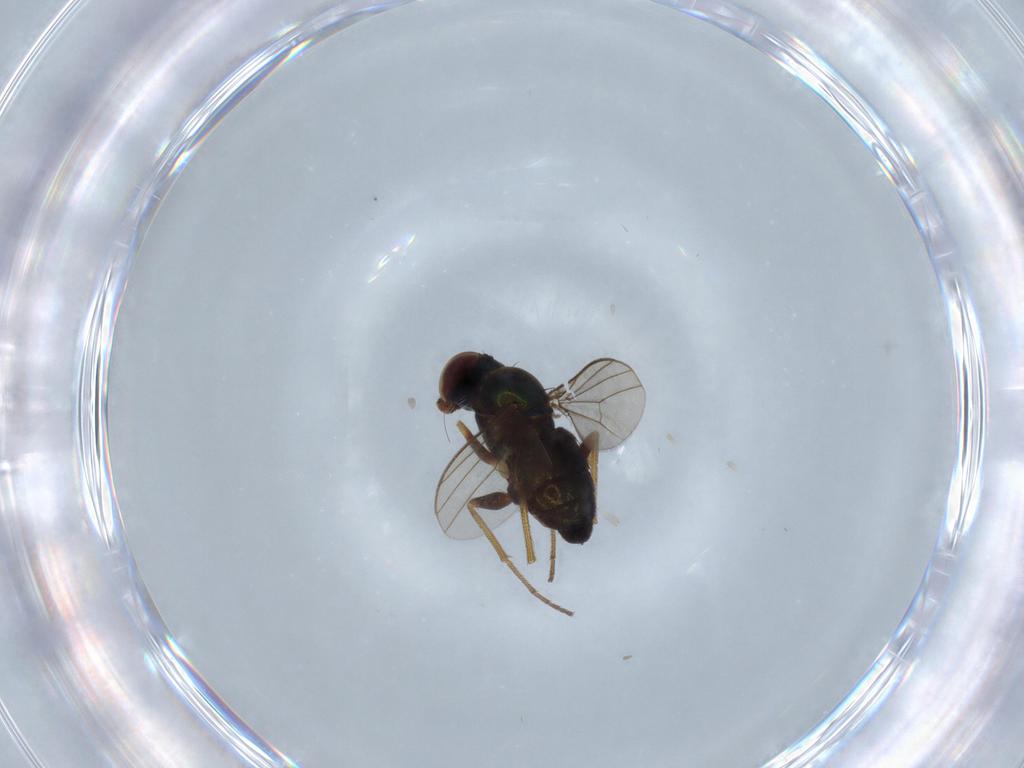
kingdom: Animalia
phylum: Arthropoda
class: Insecta
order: Diptera
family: Dolichopodidae
